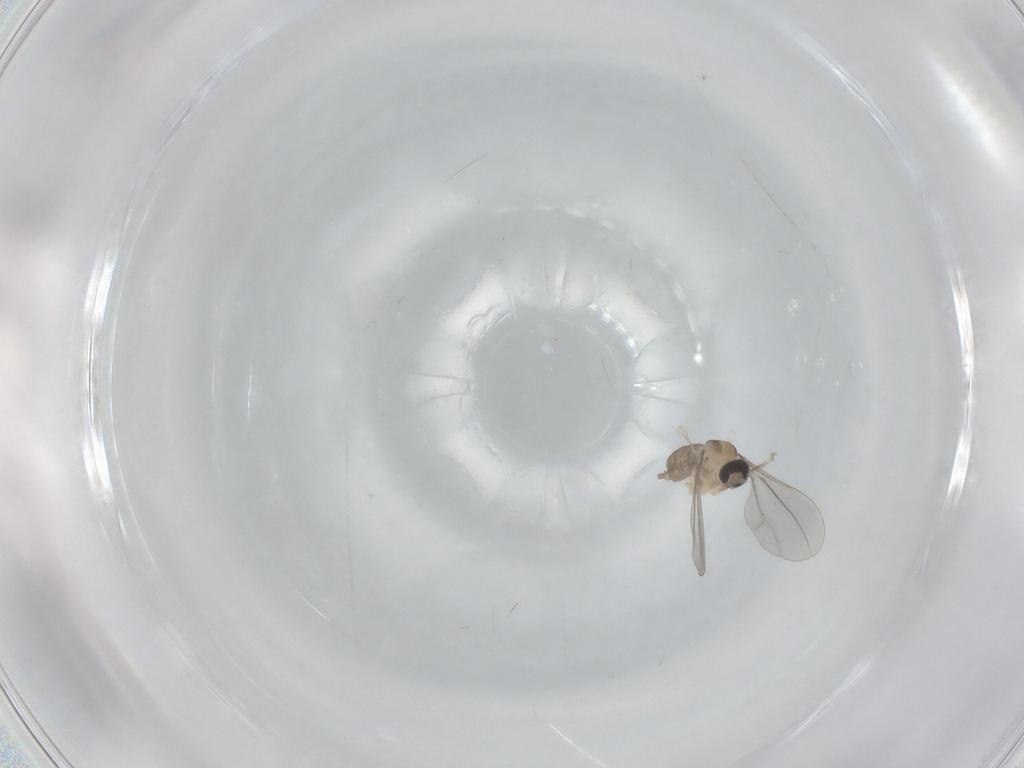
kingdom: Animalia
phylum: Arthropoda
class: Insecta
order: Diptera
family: Cecidomyiidae
